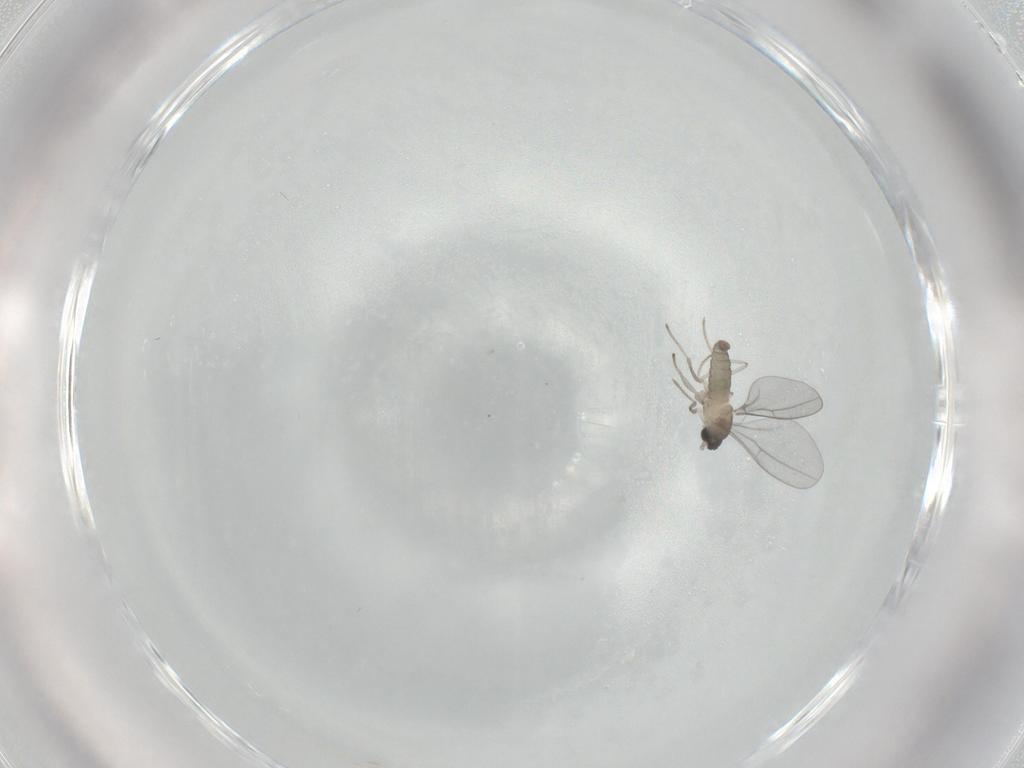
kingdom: Animalia
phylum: Arthropoda
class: Insecta
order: Diptera
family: Cecidomyiidae
